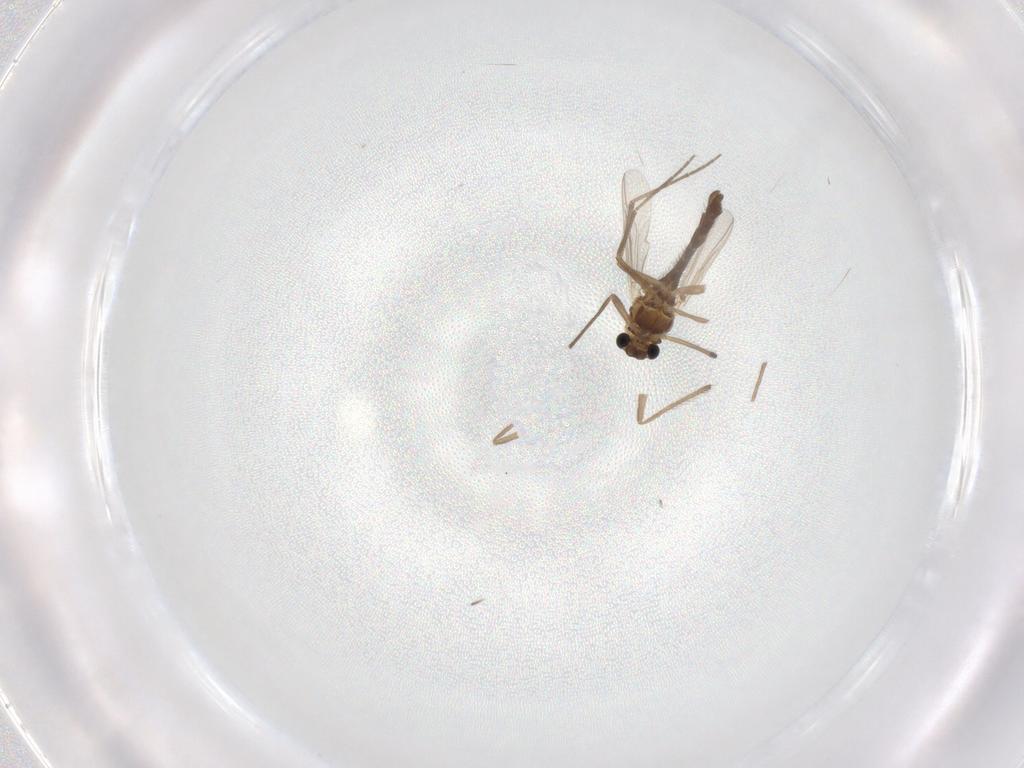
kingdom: Animalia
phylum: Arthropoda
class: Insecta
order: Diptera
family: Chironomidae
